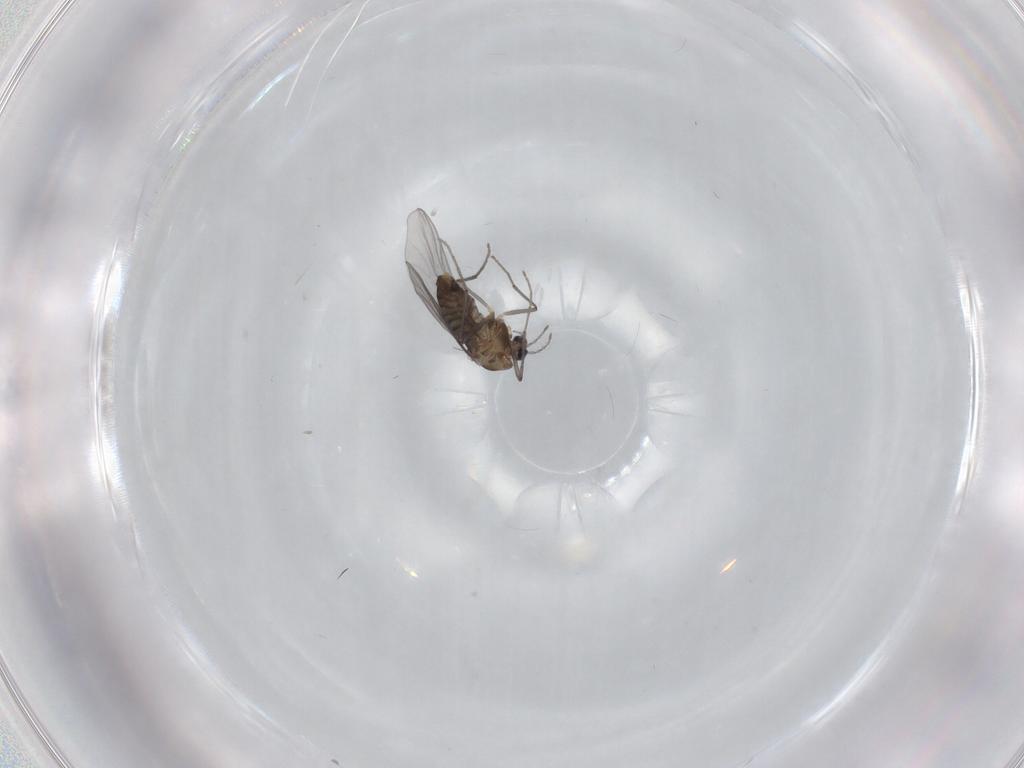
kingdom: Animalia
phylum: Arthropoda
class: Insecta
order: Diptera
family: Chironomidae
